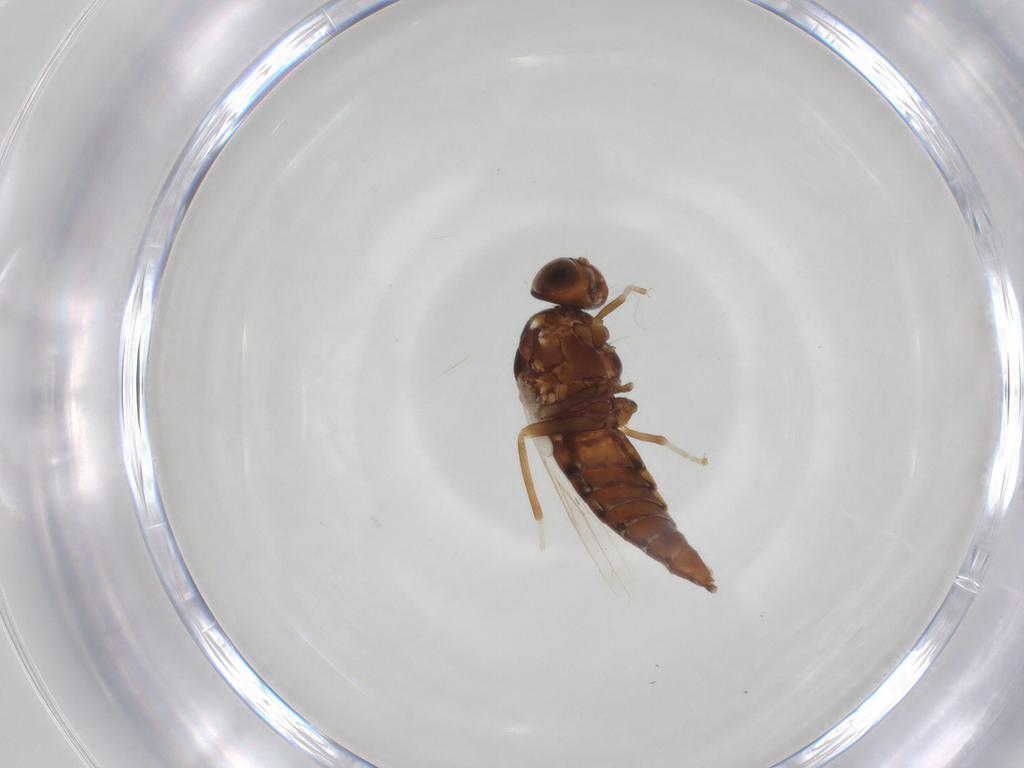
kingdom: Animalia
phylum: Arthropoda
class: Insecta
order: Diptera
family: Scenopinidae
